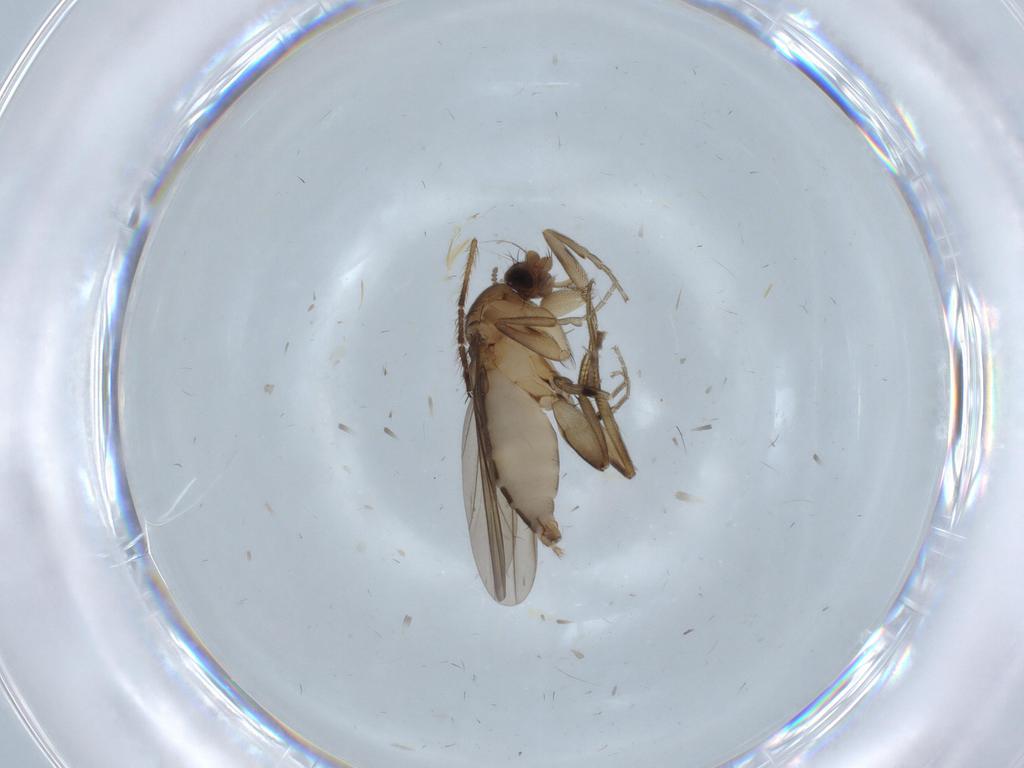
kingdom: Animalia
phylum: Arthropoda
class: Insecta
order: Diptera
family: Phoridae
